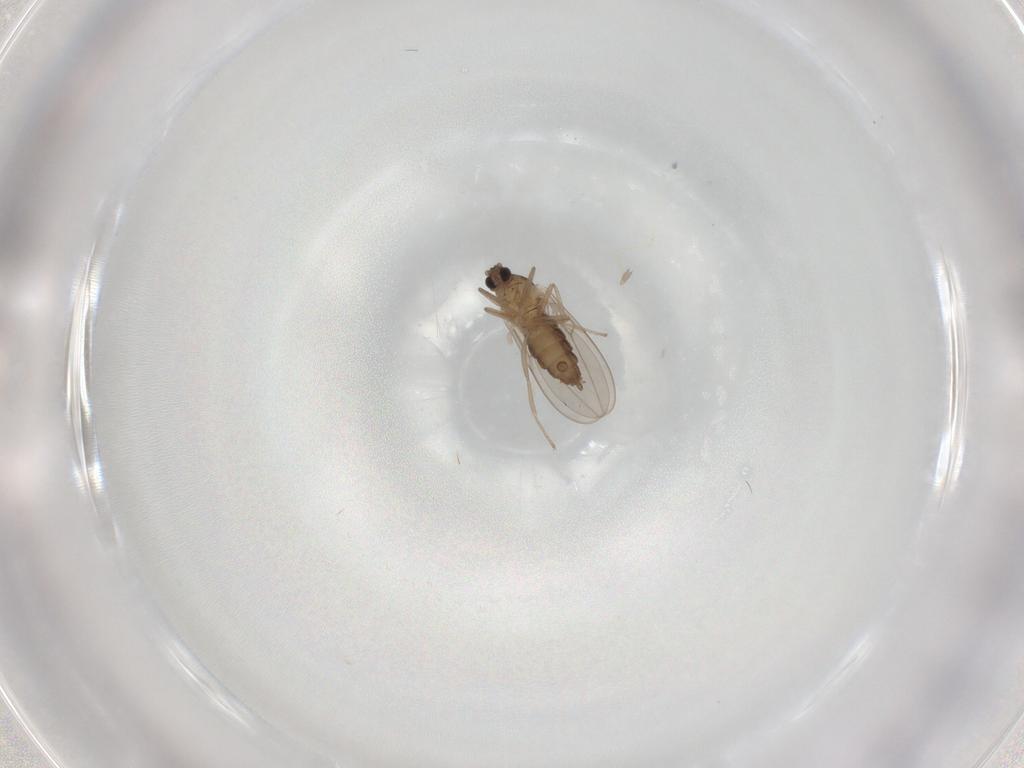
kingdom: Animalia
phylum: Arthropoda
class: Insecta
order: Diptera
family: Cecidomyiidae
